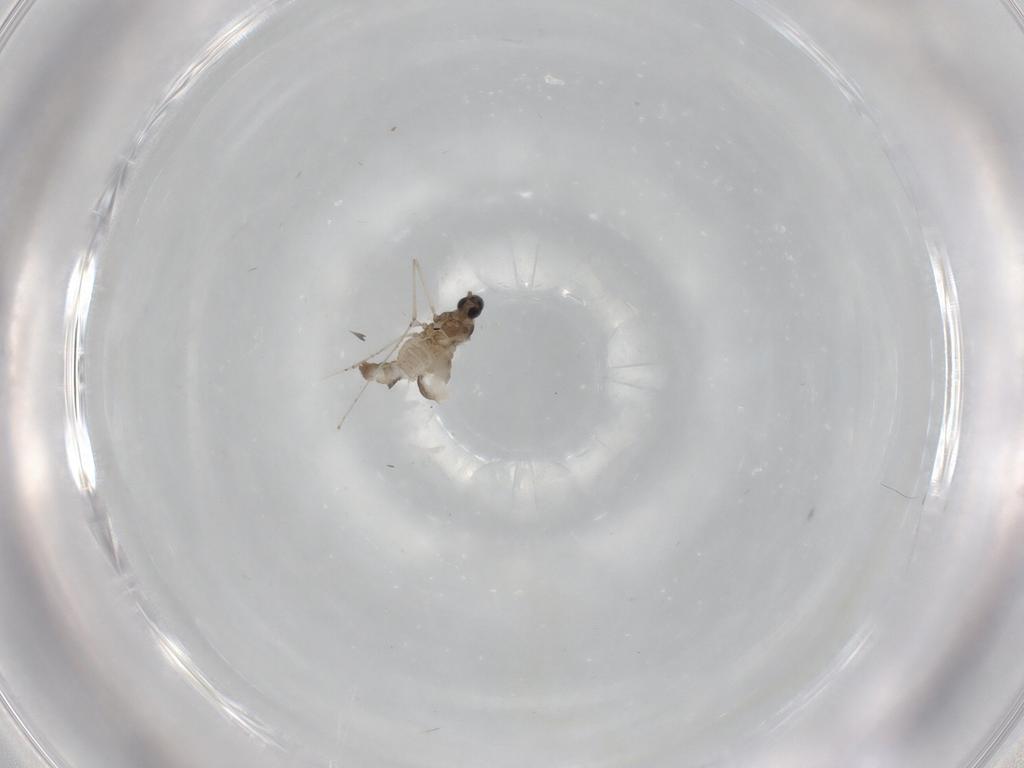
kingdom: Animalia
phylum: Arthropoda
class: Insecta
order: Diptera
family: Cecidomyiidae
